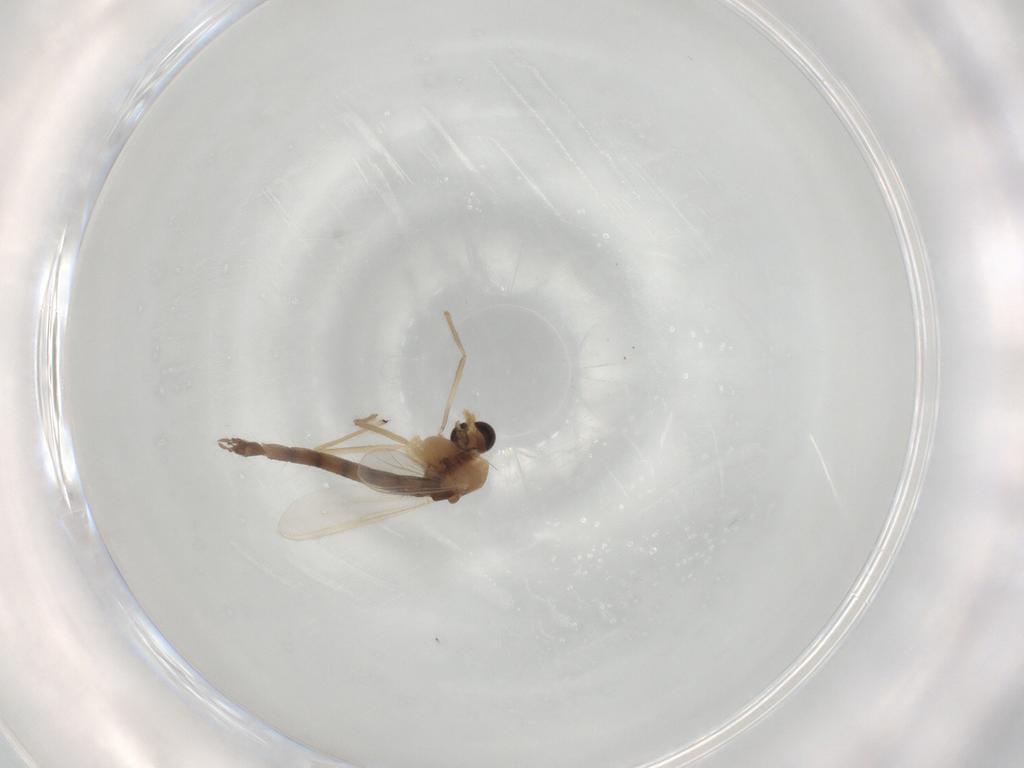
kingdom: Animalia
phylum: Arthropoda
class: Insecta
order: Diptera
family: Chironomidae
